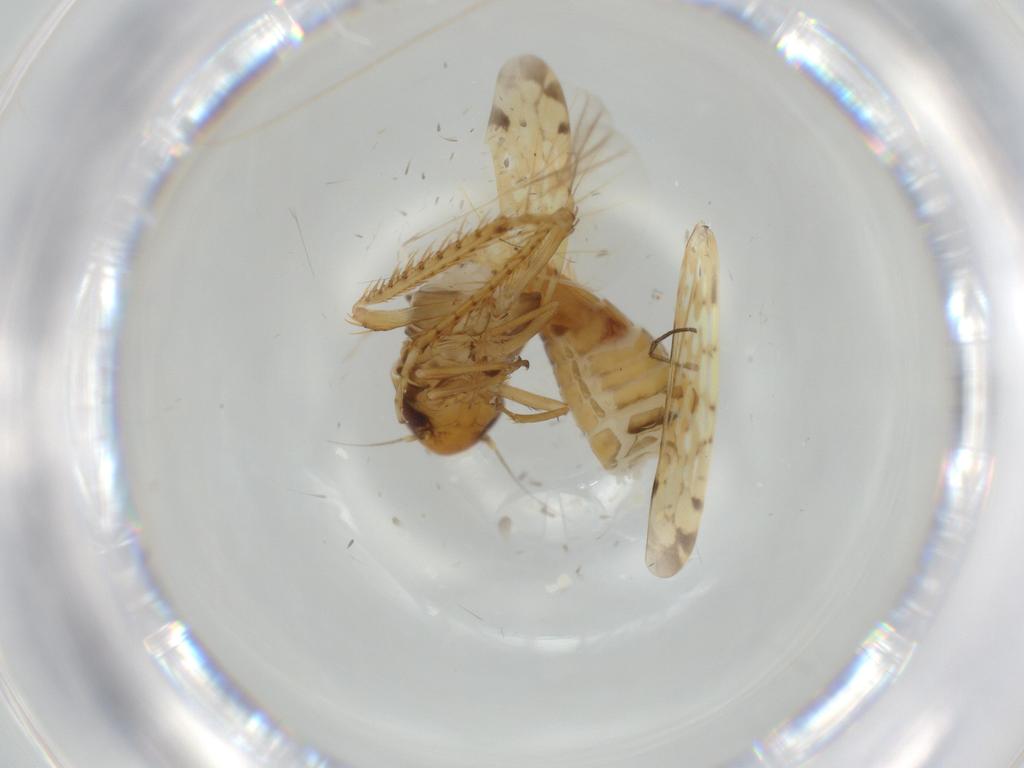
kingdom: Animalia
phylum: Arthropoda
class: Insecta
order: Hemiptera
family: Cicadellidae
